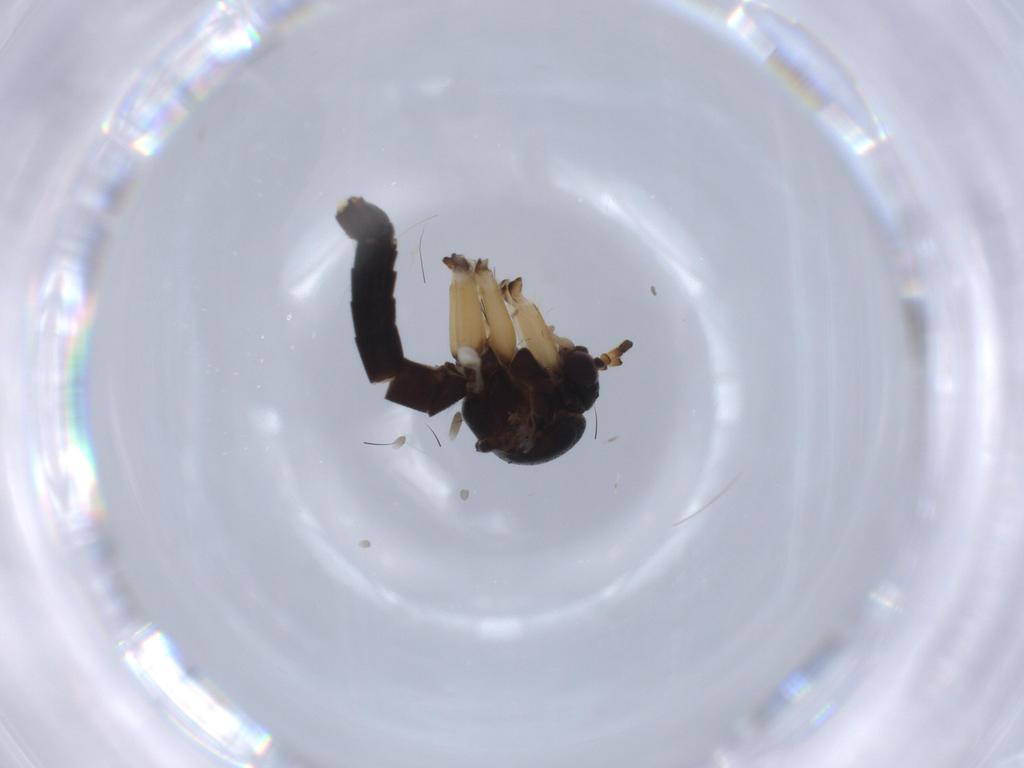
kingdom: Animalia
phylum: Arthropoda
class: Insecta
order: Diptera
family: Mycetophilidae
